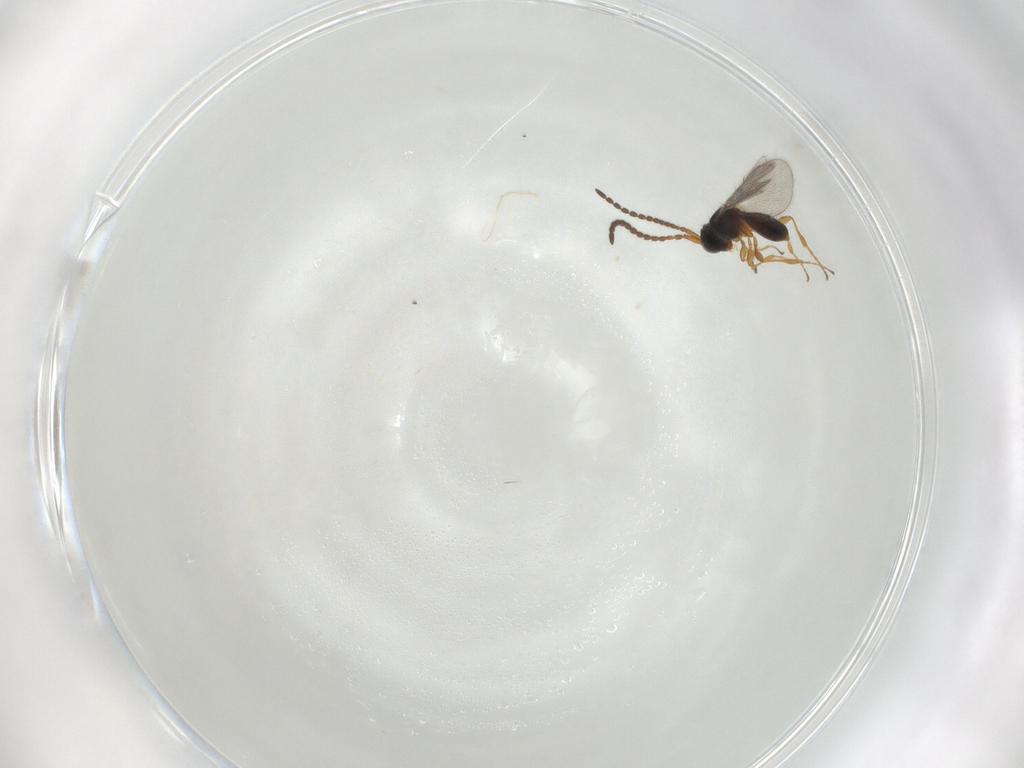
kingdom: Animalia
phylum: Arthropoda
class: Insecta
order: Hymenoptera
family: Diapriidae
